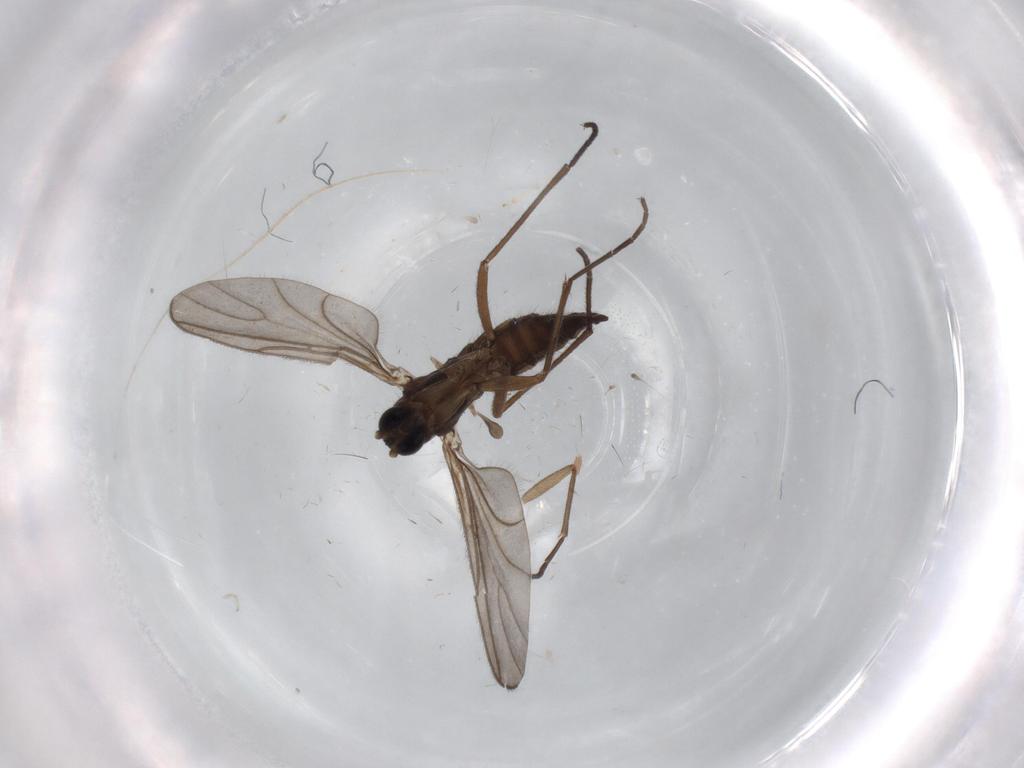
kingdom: Animalia
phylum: Arthropoda
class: Insecta
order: Diptera
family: Sciaridae
